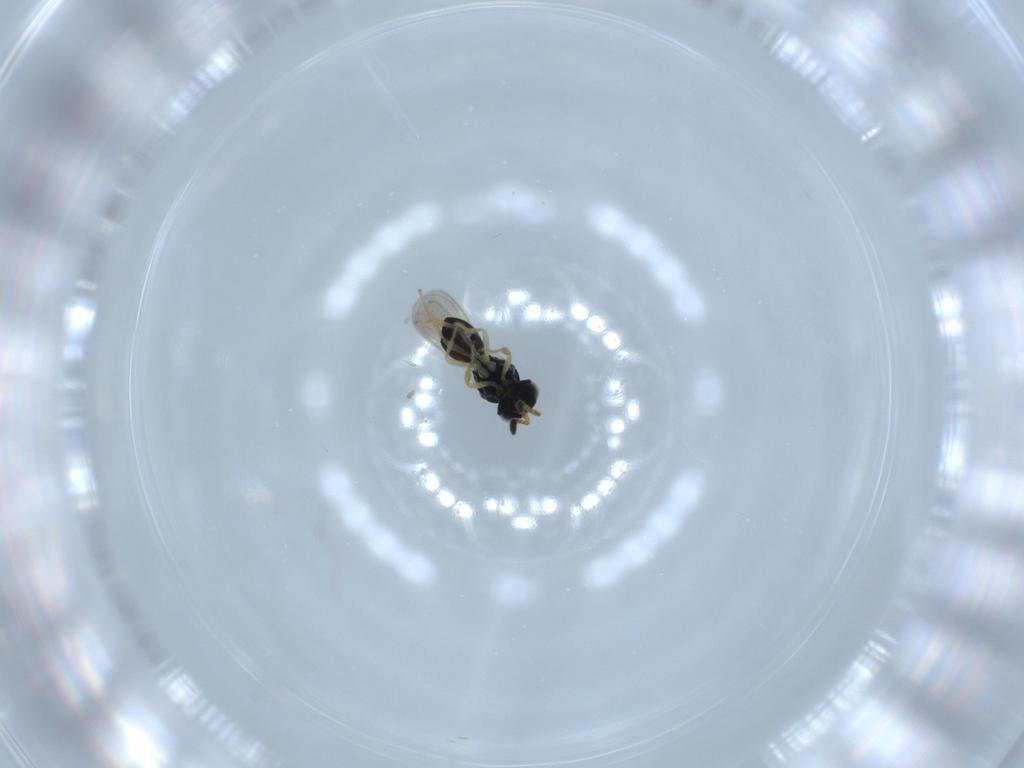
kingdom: Animalia
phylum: Arthropoda
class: Insecta
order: Hymenoptera
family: Scelionidae
